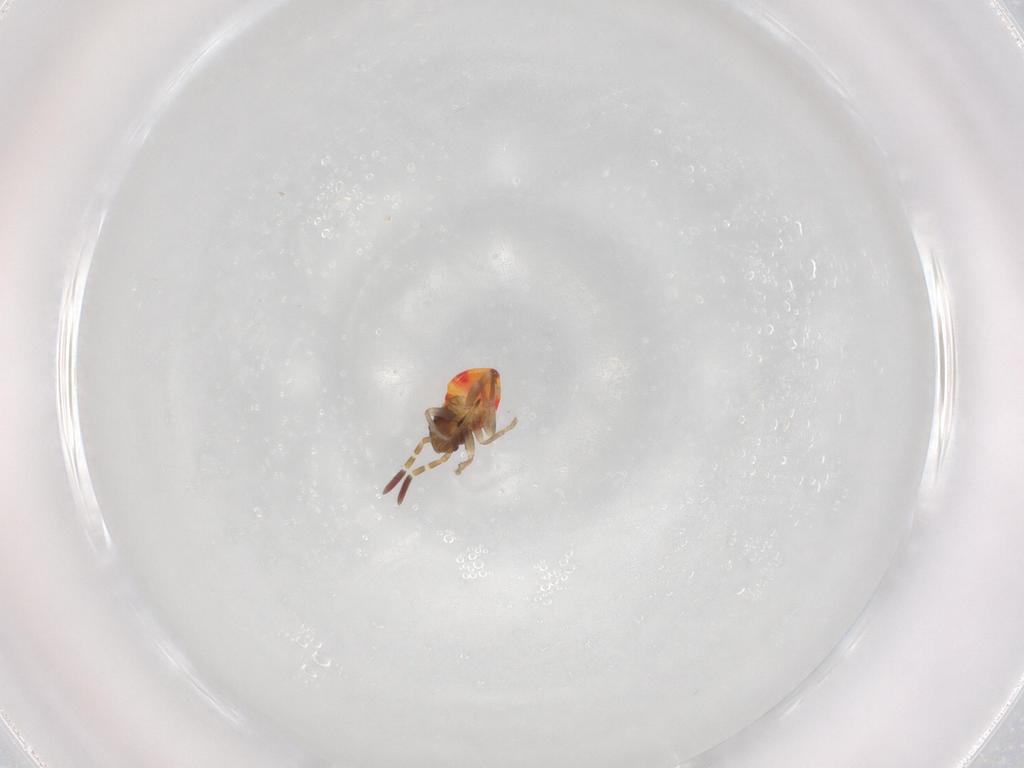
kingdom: Animalia
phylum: Arthropoda
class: Insecta
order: Hemiptera
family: Rhyparochromidae
